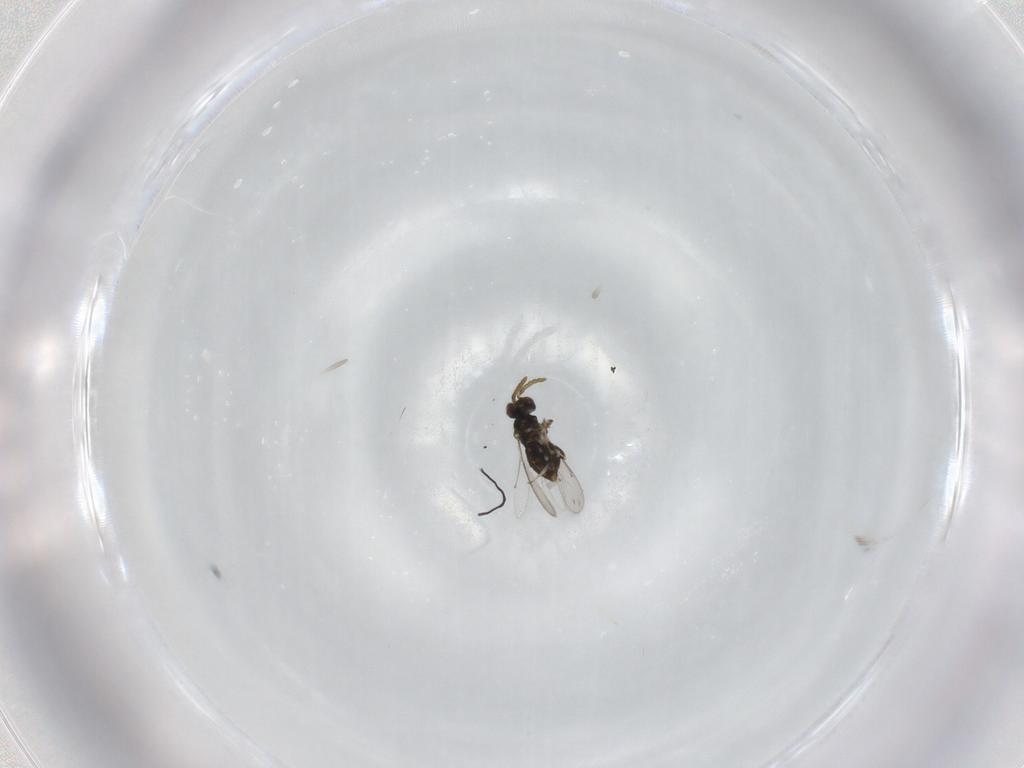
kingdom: Animalia
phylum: Arthropoda
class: Insecta
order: Hymenoptera
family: Aphelinidae
